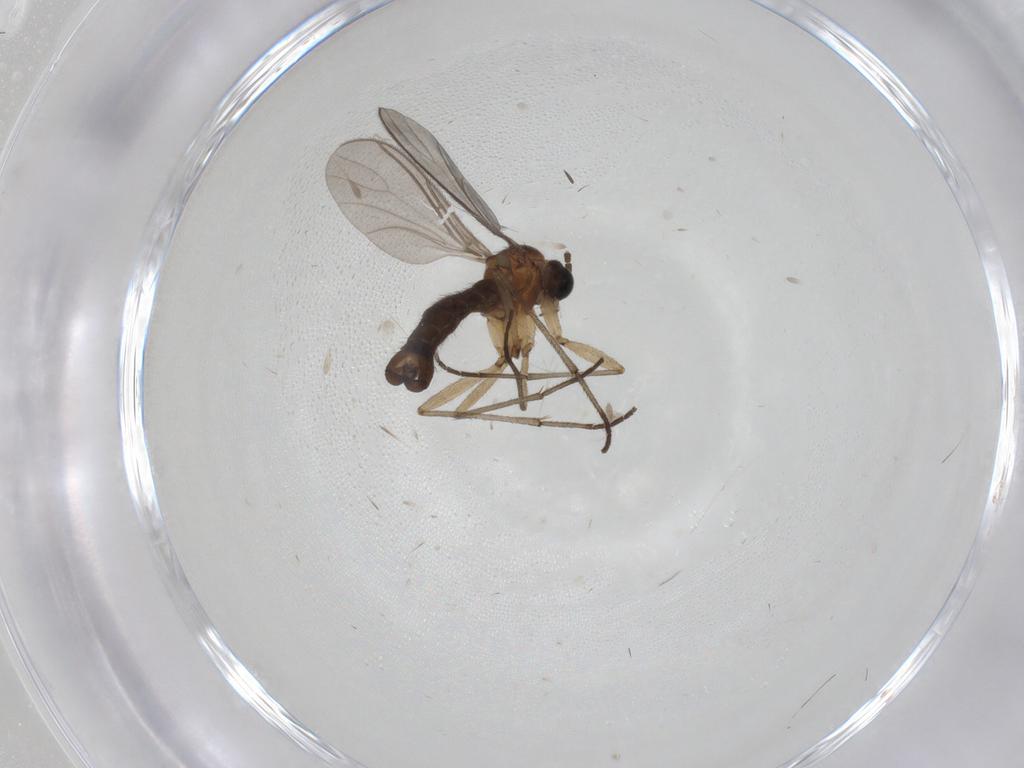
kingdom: Animalia
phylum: Arthropoda
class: Insecta
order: Diptera
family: Sciaridae
